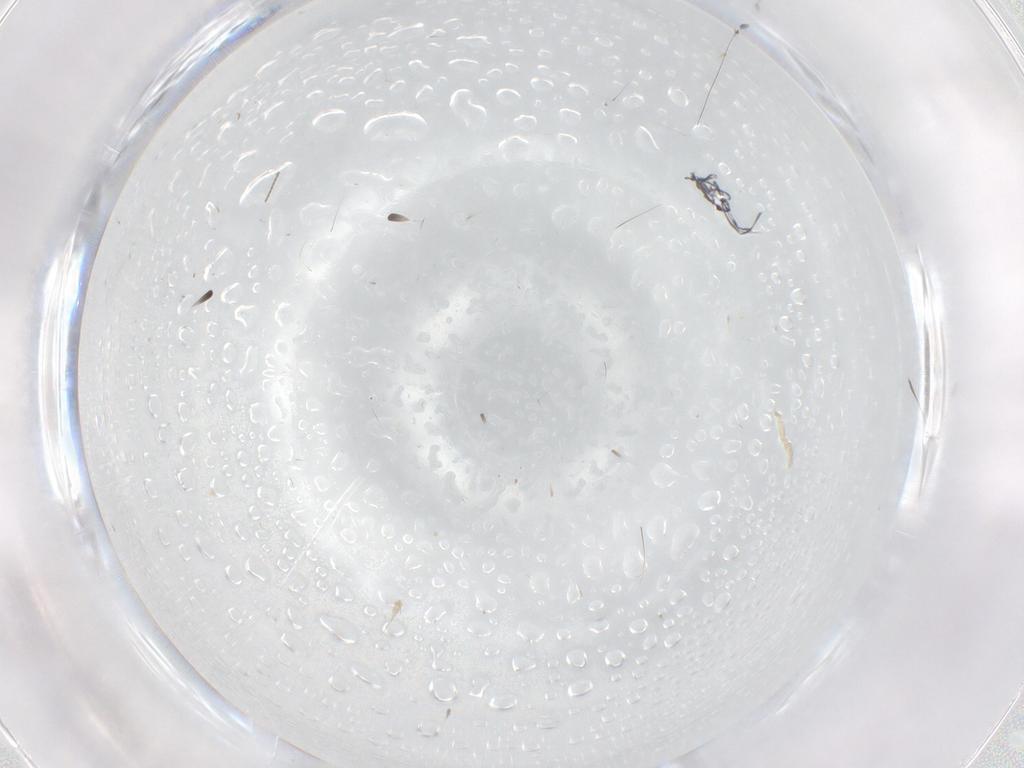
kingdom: Animalia
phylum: Arthropoda
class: Insecta
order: Diptera
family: Cecidomyiidae
